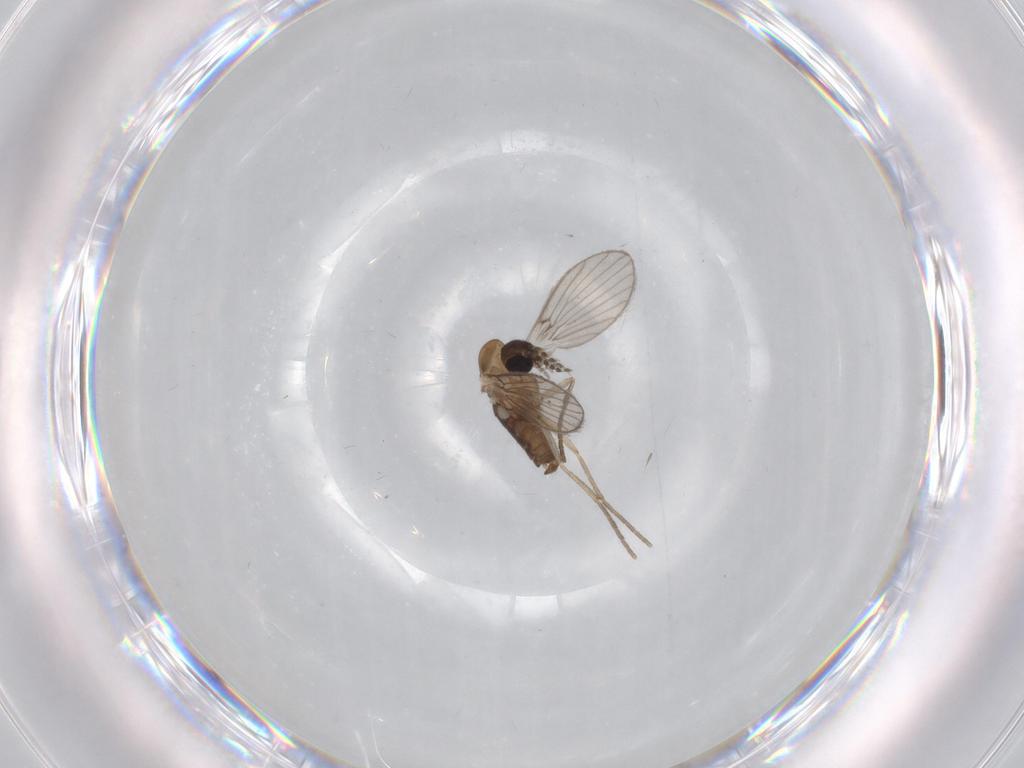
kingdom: Animalia
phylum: Arthropoda
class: Insecta
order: Diptera
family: Psychodidae
